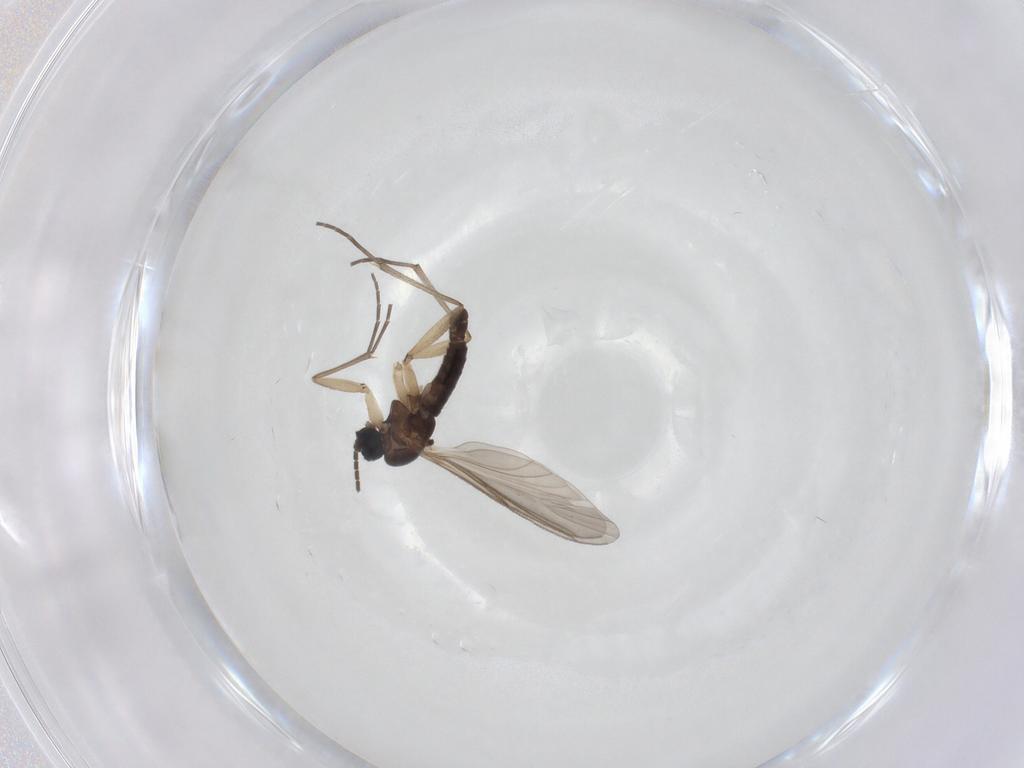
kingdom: Animalia
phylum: Arthropoda
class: Insecta
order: Diptera
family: Sciaridae
